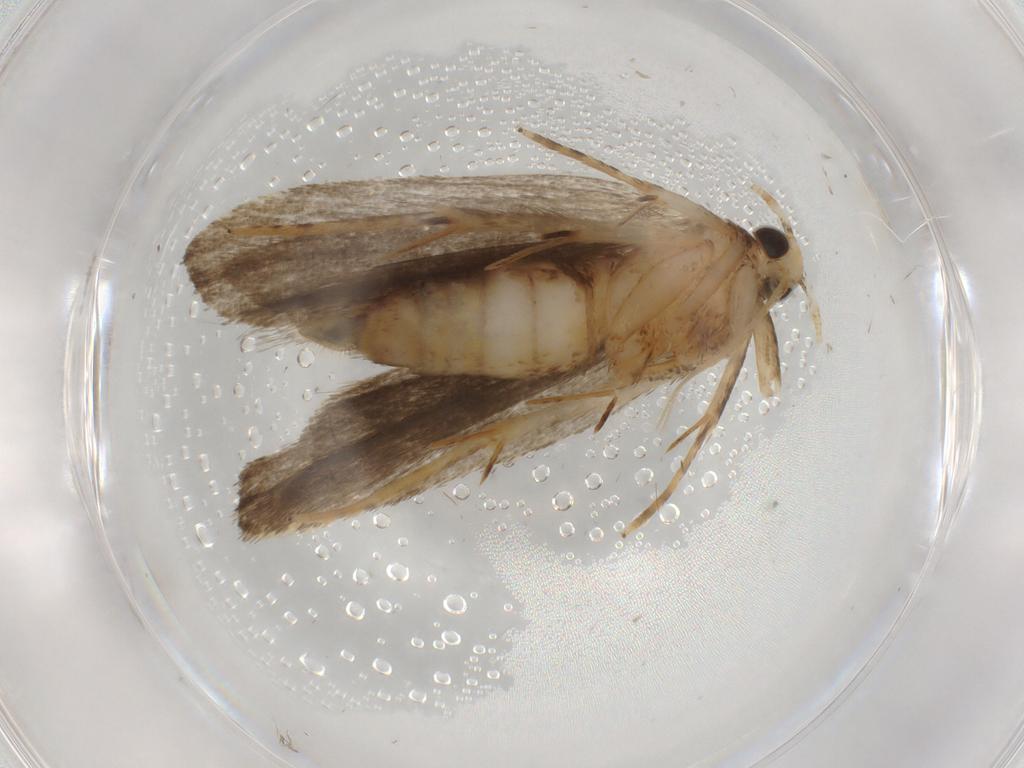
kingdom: Animalia
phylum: Arthropoda
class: Insecta
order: Lepidoptera
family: Autostichidae
